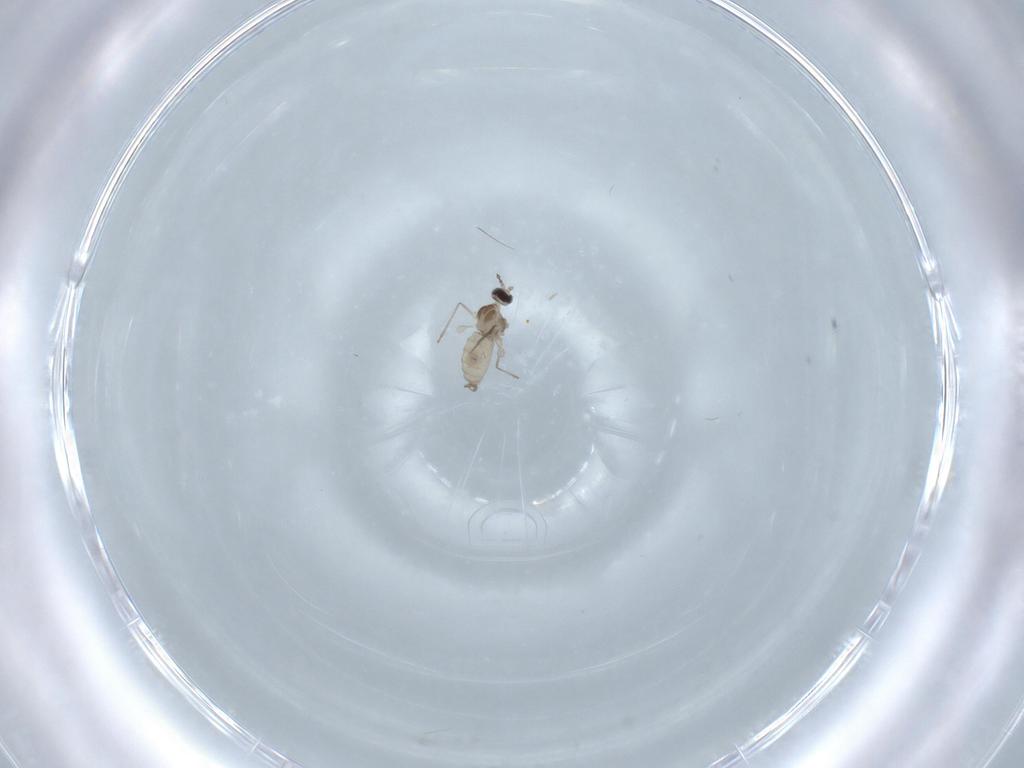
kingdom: Animalia
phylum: Arthropoda
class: Insecta
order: Diptera
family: Cecidomyiidae
